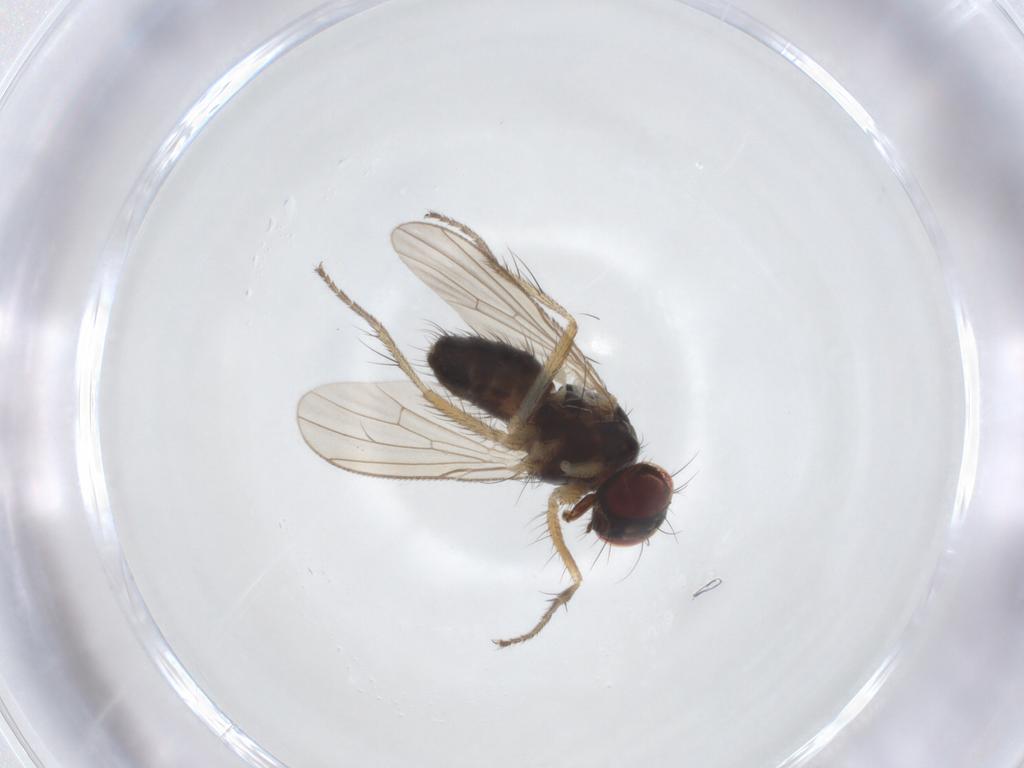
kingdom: Animalia
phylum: Arthropoda
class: Insecta
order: Diptera
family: Muscidae
